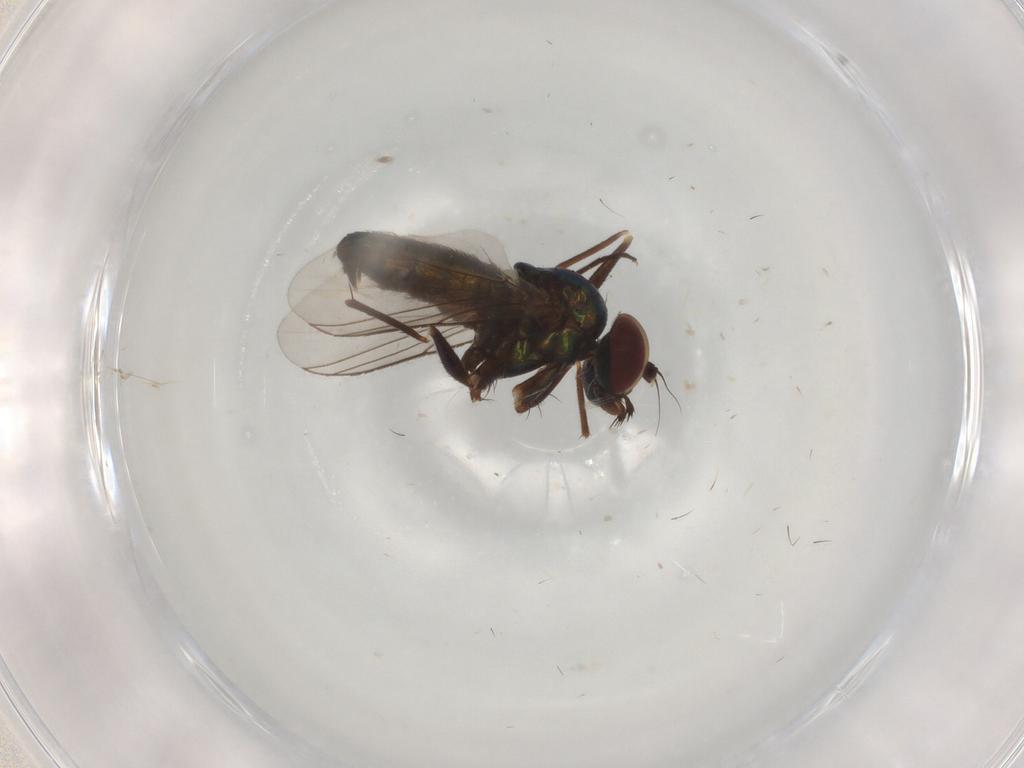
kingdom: Animalia
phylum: Arthropoda
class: Insecta
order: Diptera
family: Dolichopodidae
